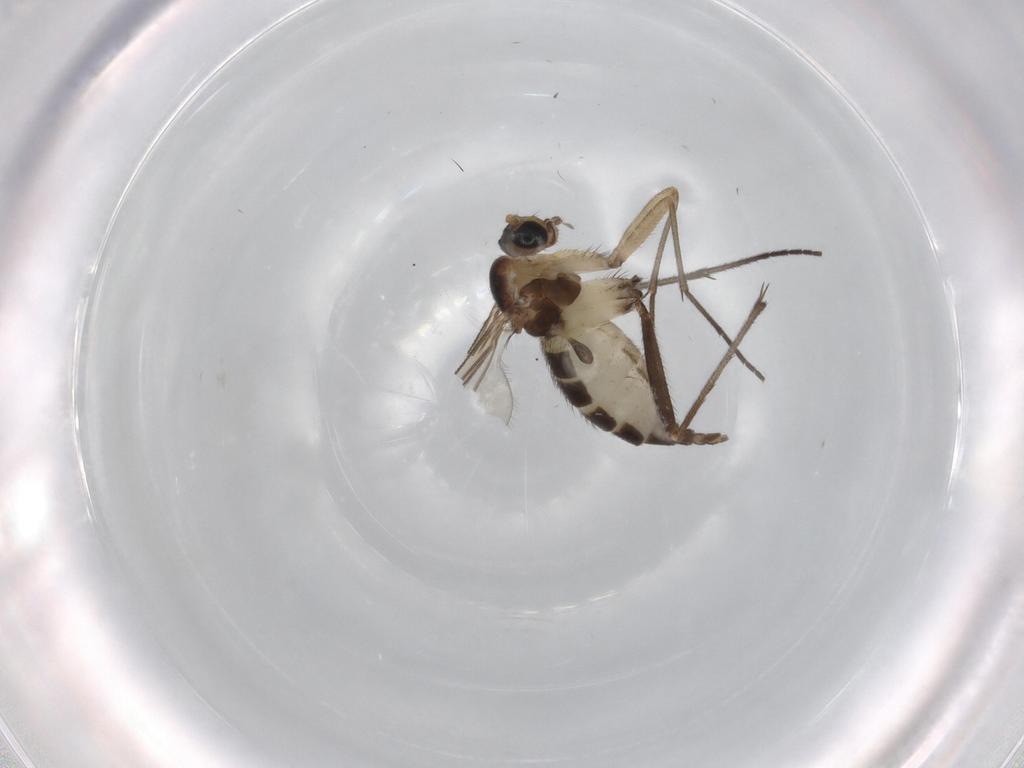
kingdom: Animalia
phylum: Arthropoda
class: Insecta
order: Diptera
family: Sciaridae
